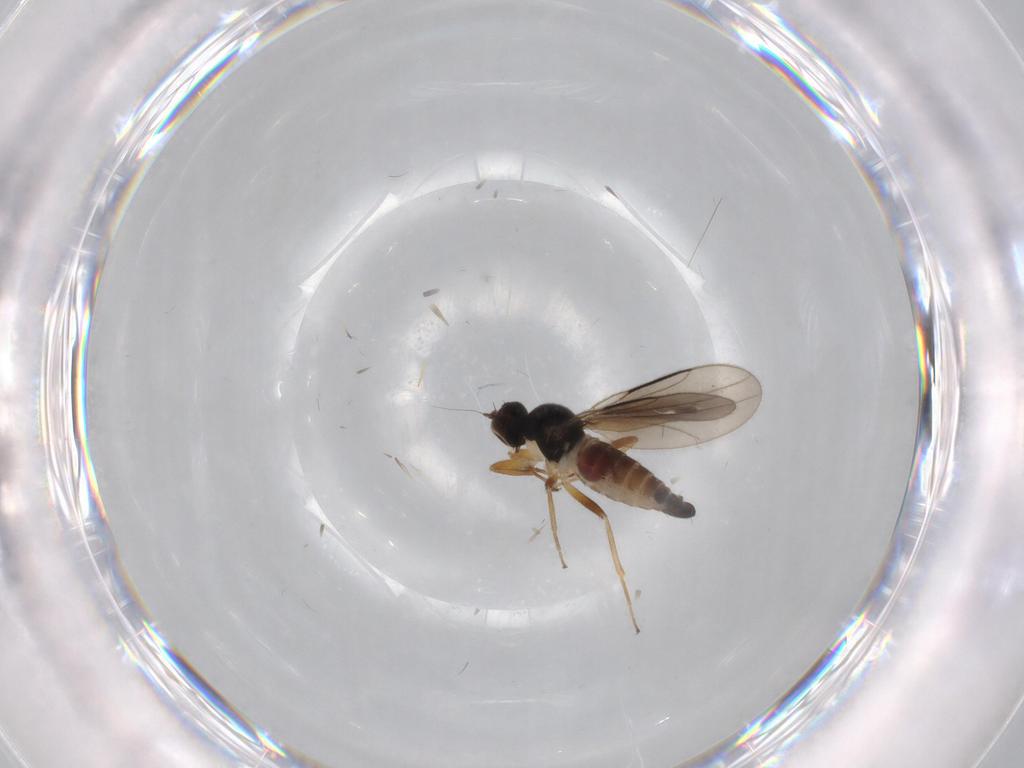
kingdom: Animalia
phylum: Arthropoda
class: Insecta
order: Diptera
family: Hybotidae
